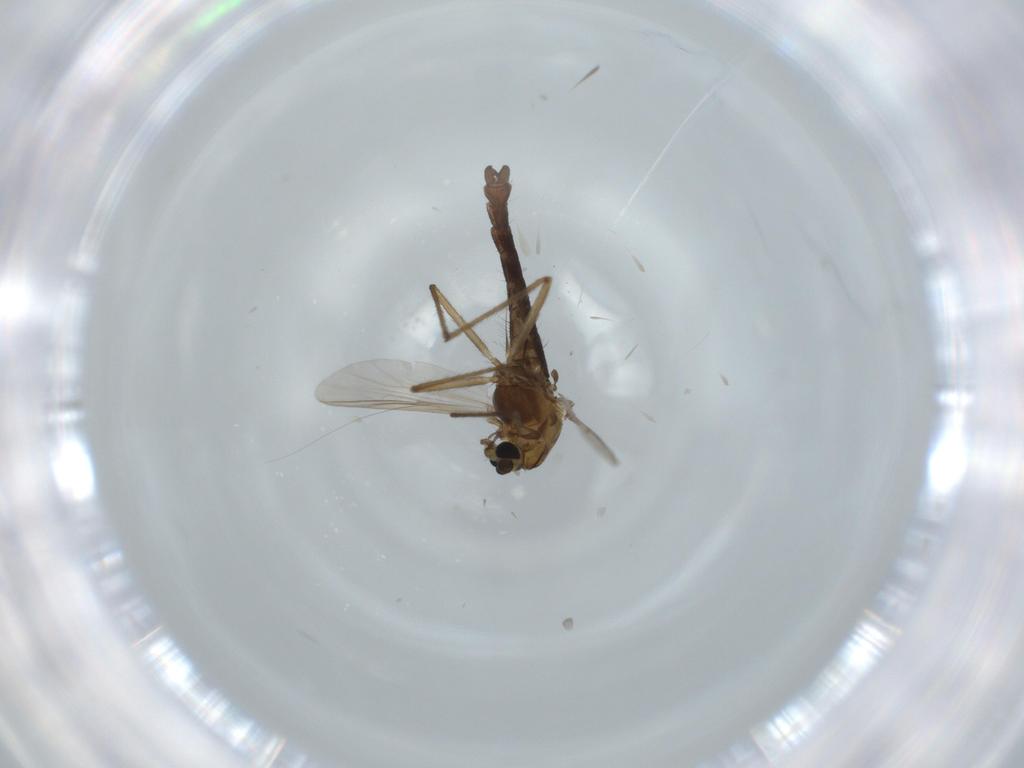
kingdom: Animalia
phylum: Arthropoda
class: Insecta
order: Diptera
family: Chironomidae
